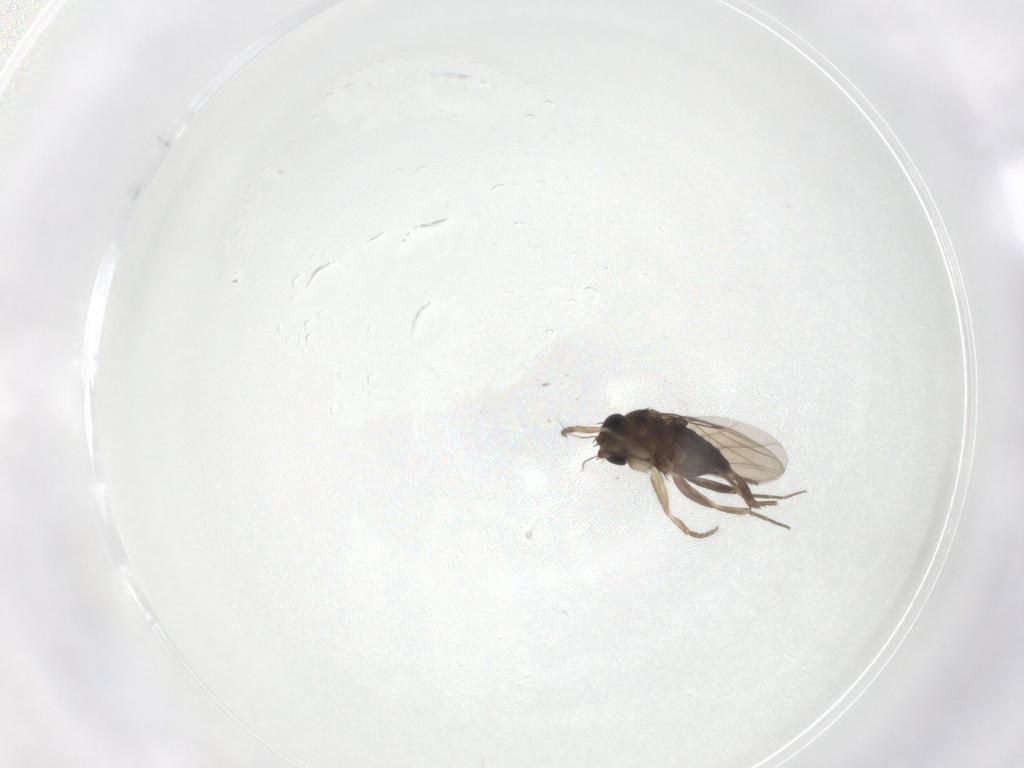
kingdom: Animalia
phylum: Arthropoda
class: Insecta
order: Diptera
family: Phoridae
